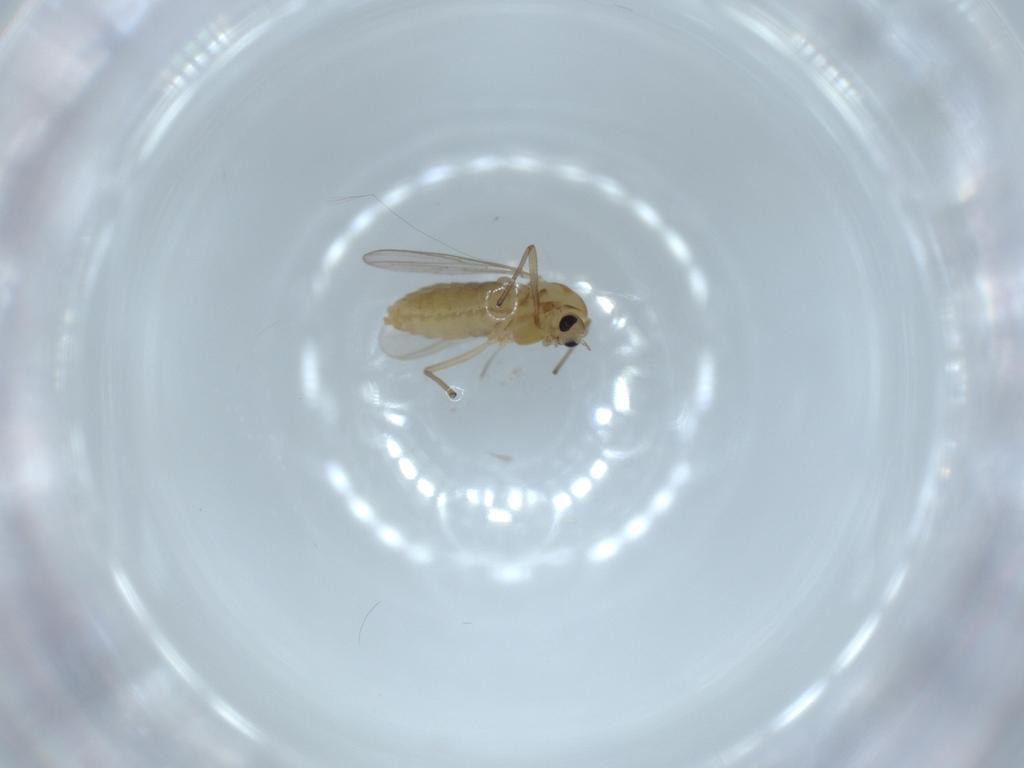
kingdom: Animalia
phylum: Arthropoda
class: Insecta
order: Diptera
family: Chironomidae
